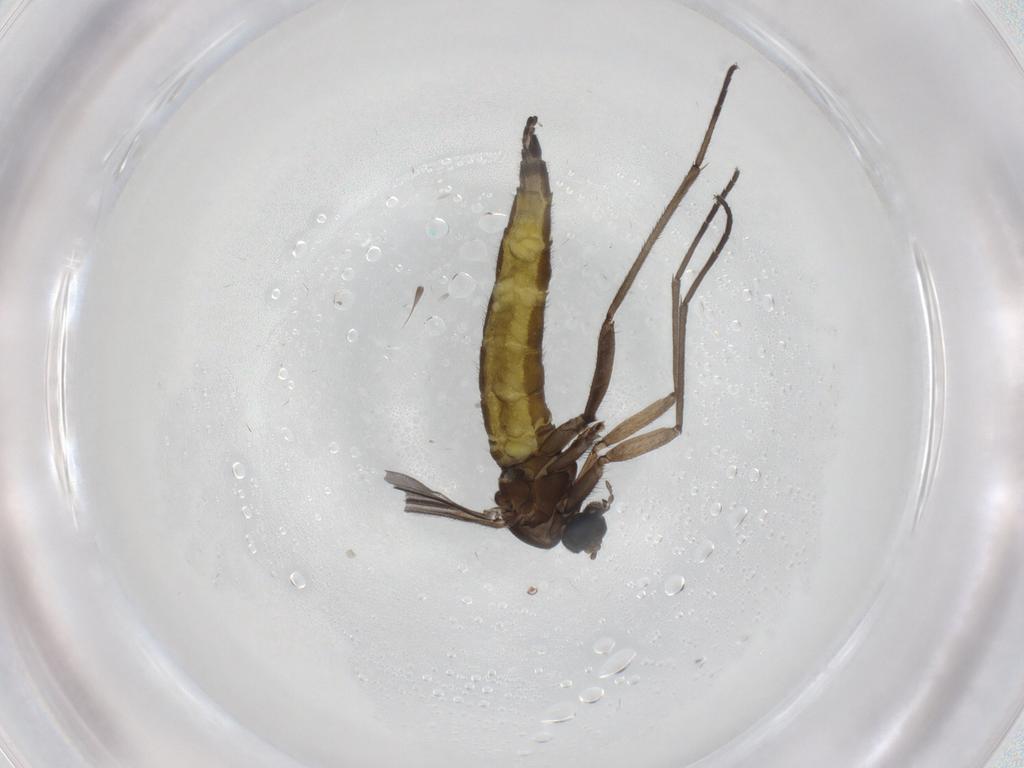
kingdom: Animalia
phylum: Arthropoda
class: Insecta
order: Diptera
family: Sciaridae
